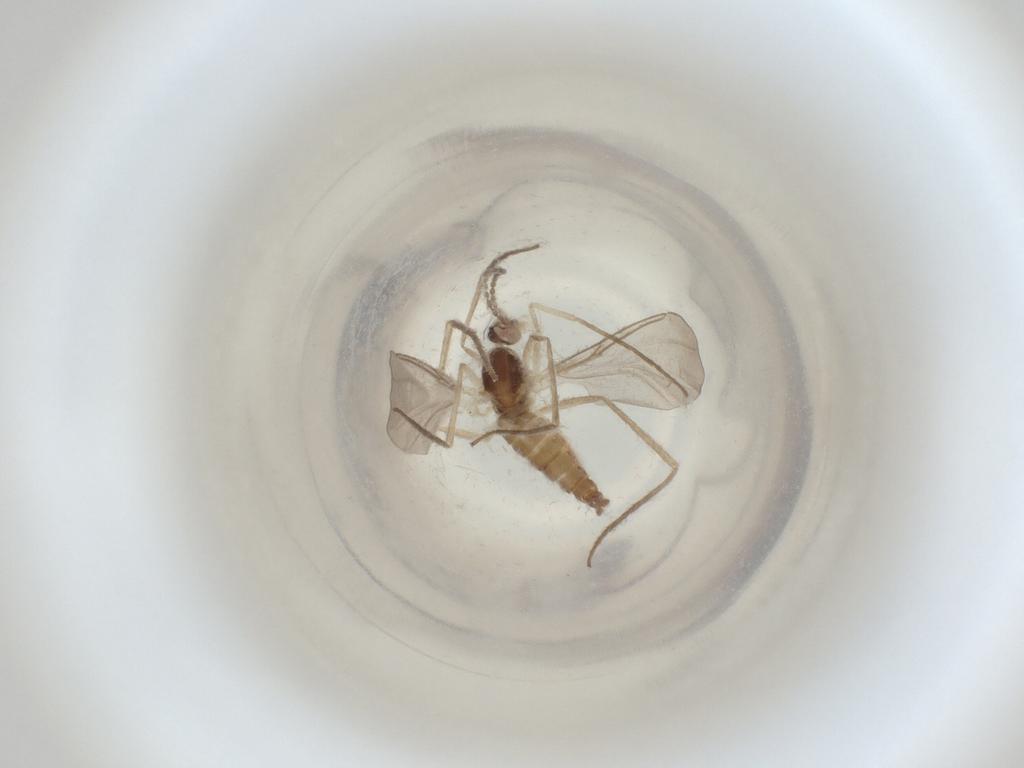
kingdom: Animalia
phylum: Arthropoda
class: Insecta
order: Diptera
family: Cecidomyiidae
